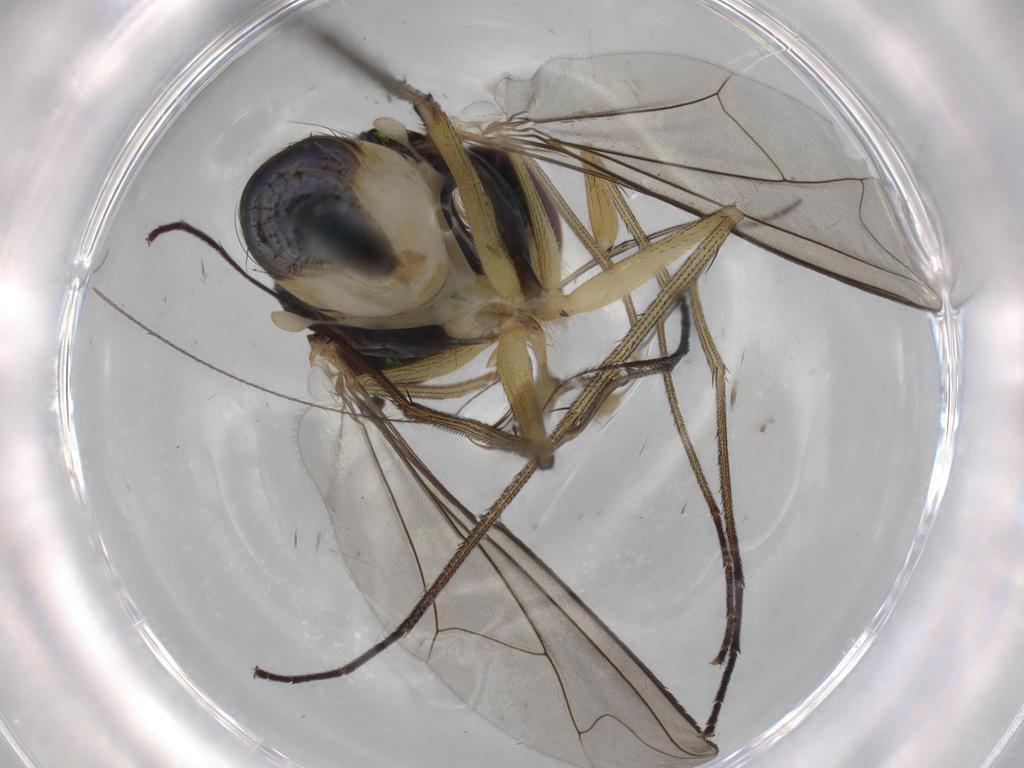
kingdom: Animalia
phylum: Arthropoda
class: Insecta
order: Diptera
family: Dolichopodidae
